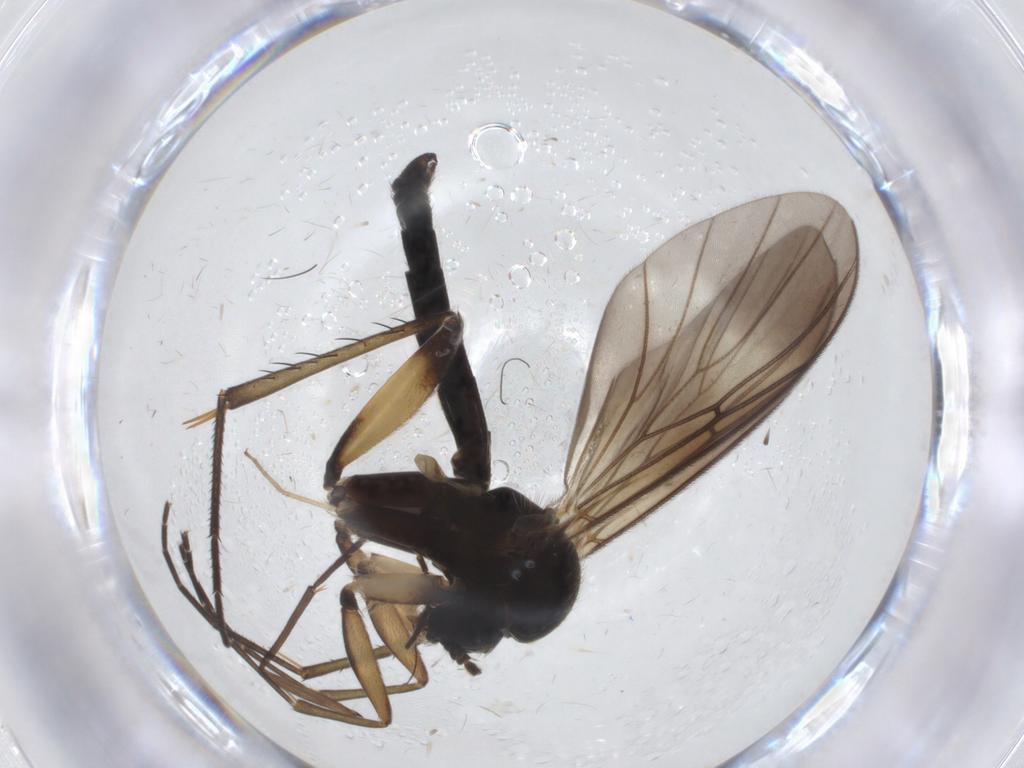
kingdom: Animalia
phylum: Arthropoda
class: Insecta
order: Diptera
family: Mycetophilidae
